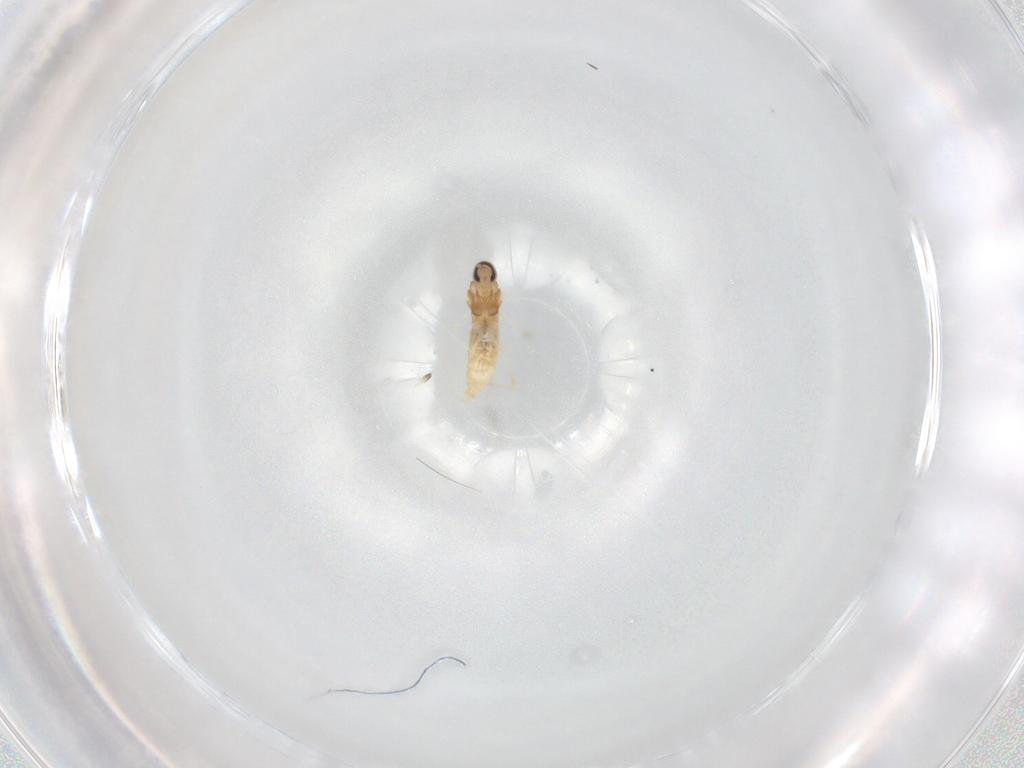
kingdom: Animalia
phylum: Arthropoda
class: Insecta
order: Diptera
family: Cecidomyiidae
